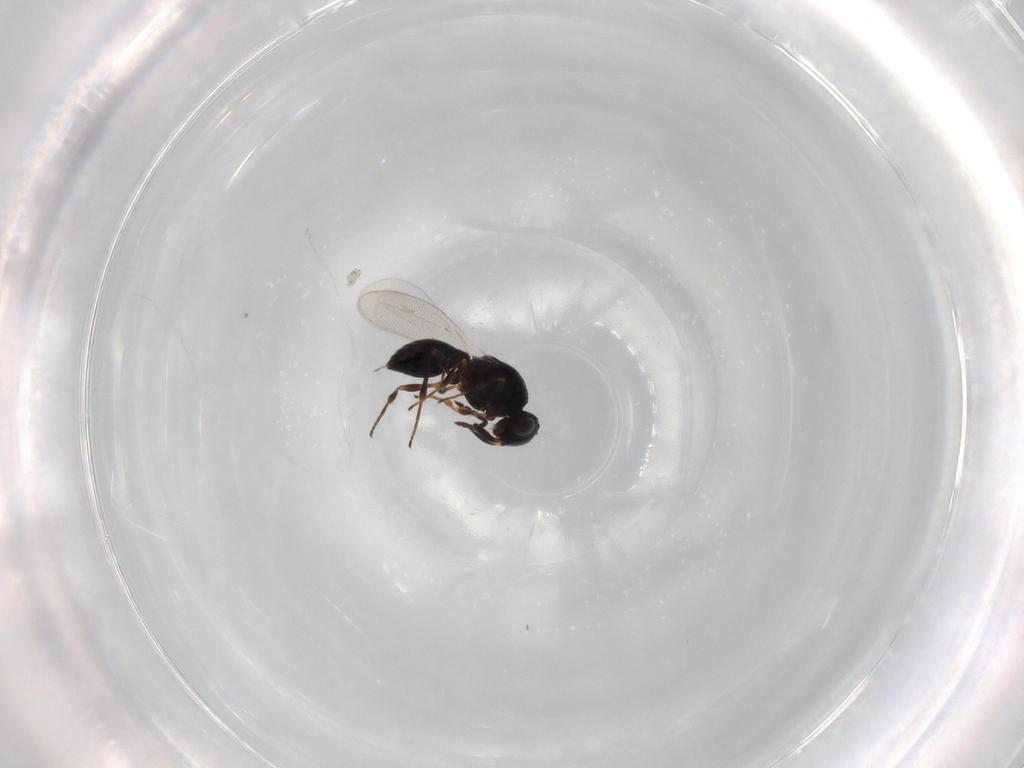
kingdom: Animalia
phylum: Arthropoda
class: Insecta
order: Hymenoptera
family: Platygastridae
